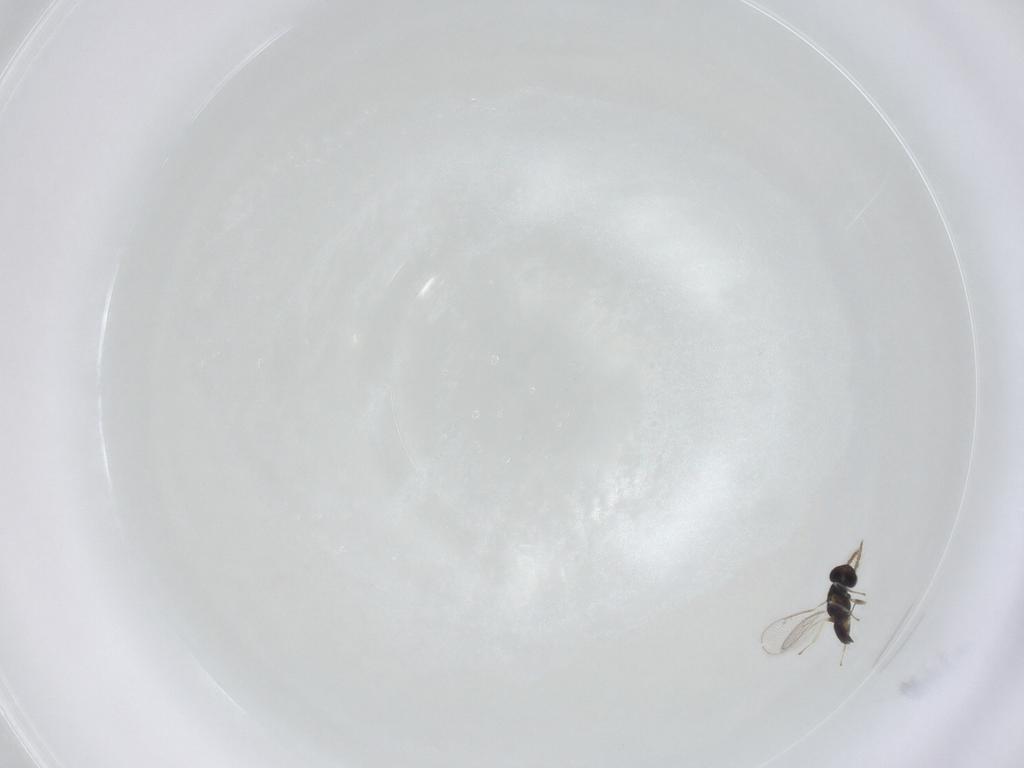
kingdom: Animalia
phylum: Arthropoda
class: Insecta
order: Hymenoptera
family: Eulophidae
